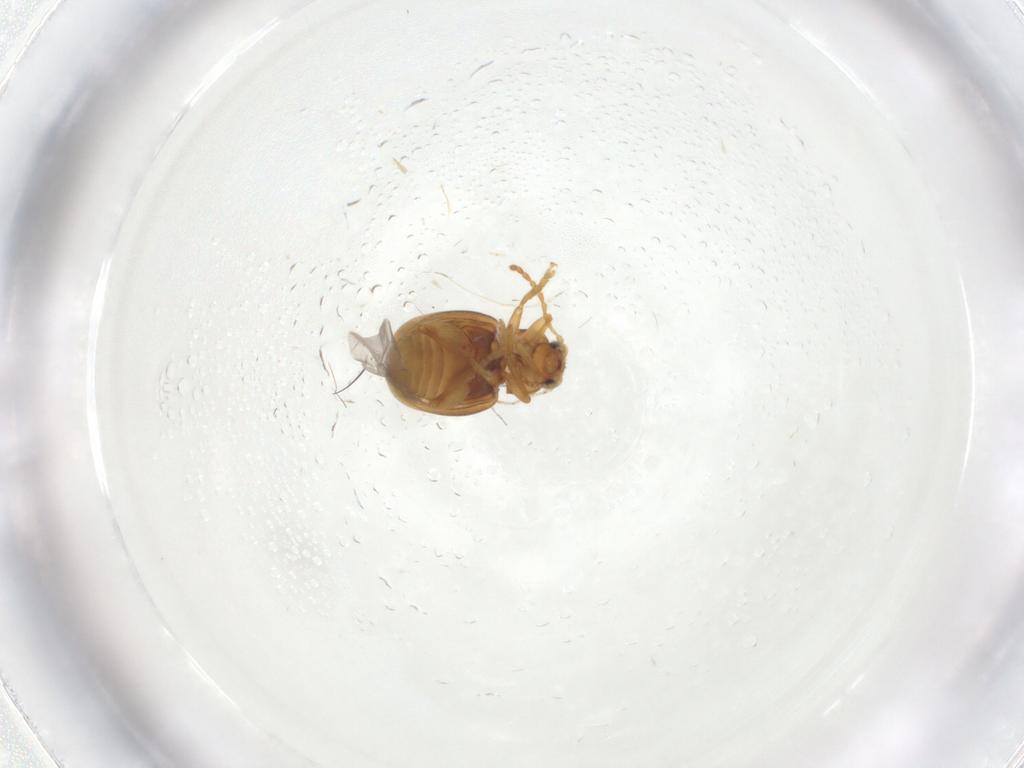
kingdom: Animalia
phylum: Arthropoda
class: Insecta
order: Coleoptera
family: Chrysomelidae
